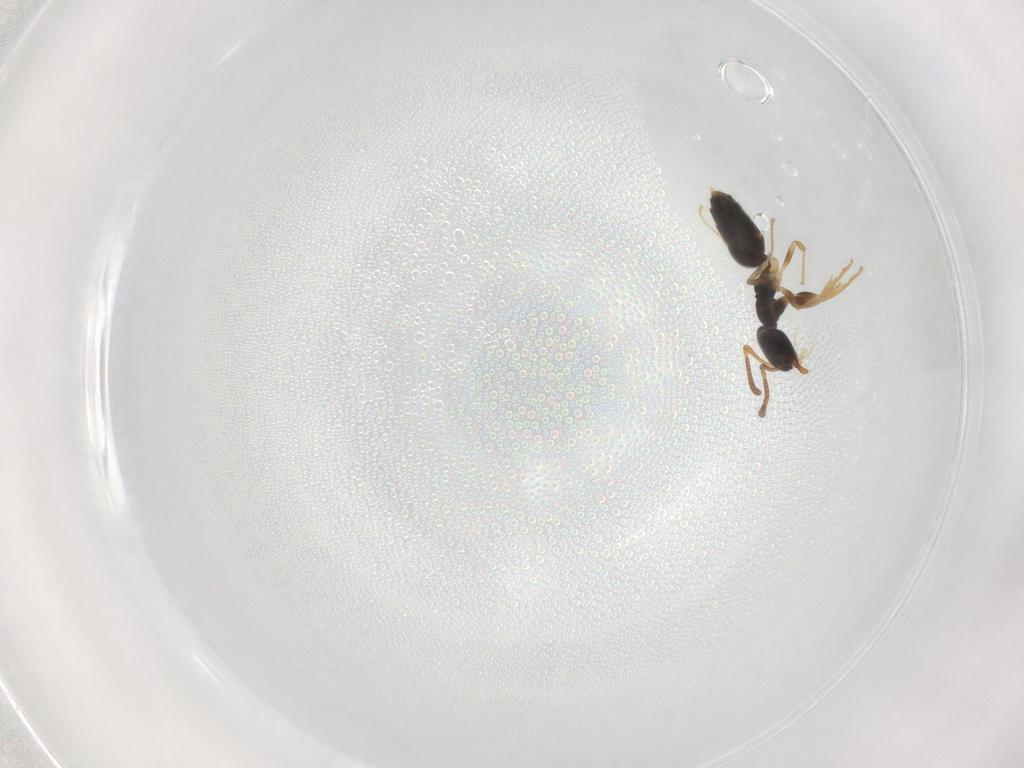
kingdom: Animalia
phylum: Arthropoda
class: Insecta
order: Hymenoptera
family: Formicidae
